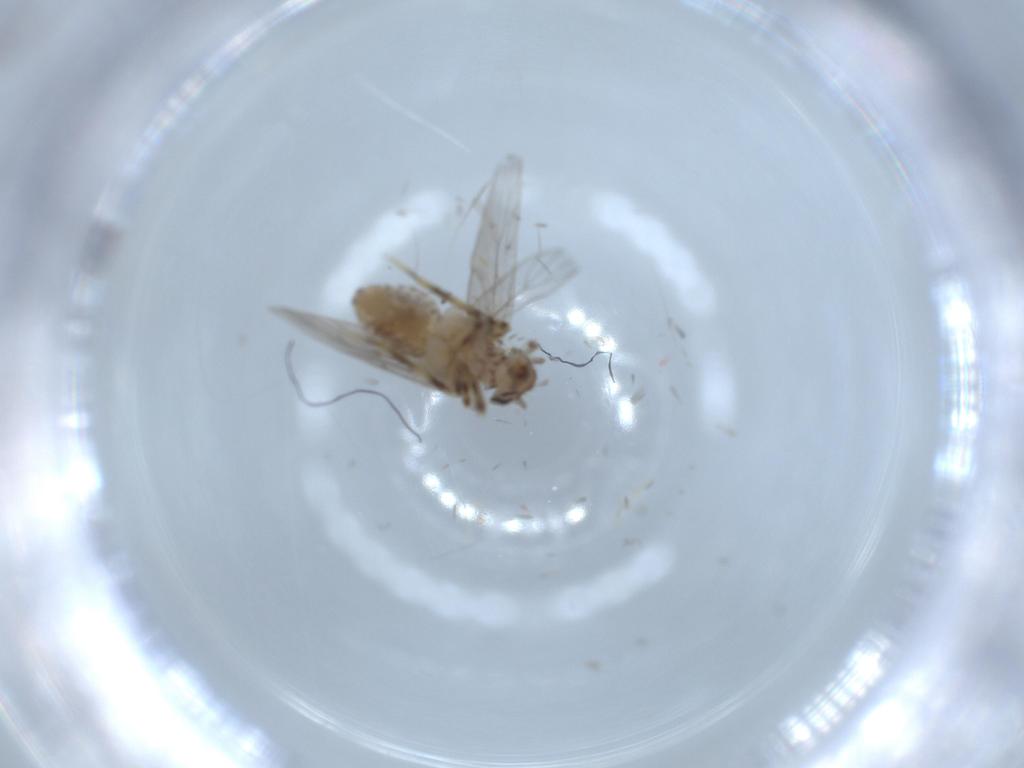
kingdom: Animalia
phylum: Arthropoda
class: Insecta
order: Psocodea
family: Lepidopsocidae
